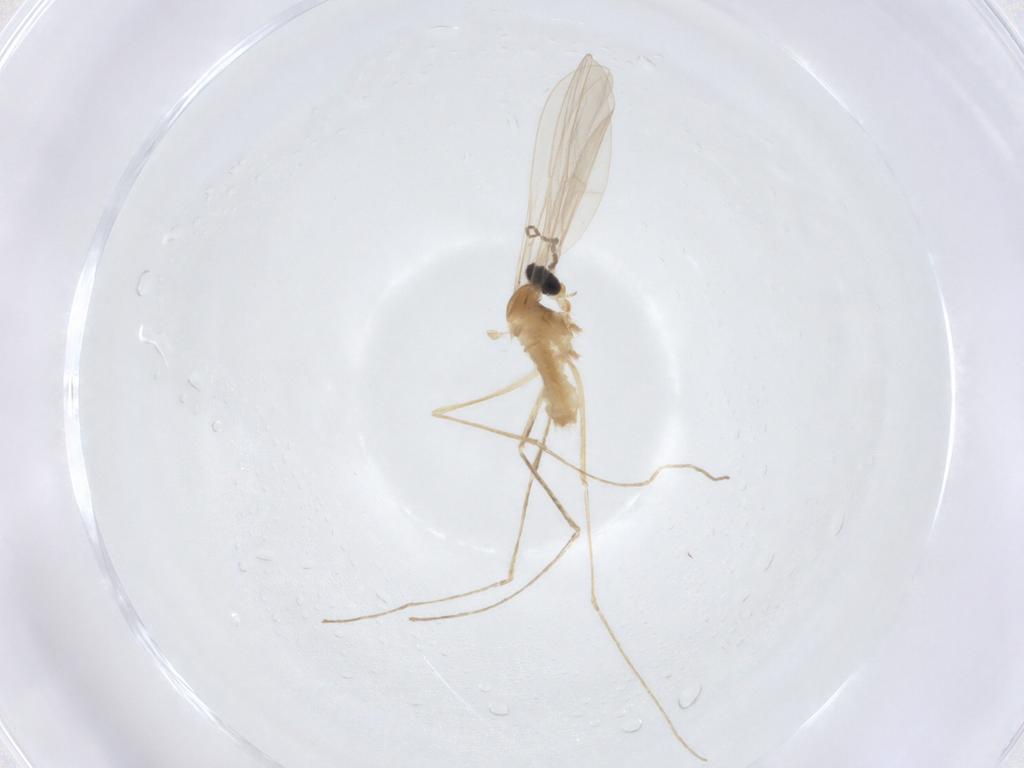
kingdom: Animalia
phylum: Arthropoda
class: Insecta
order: Diptera
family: Cecidomyiidae
